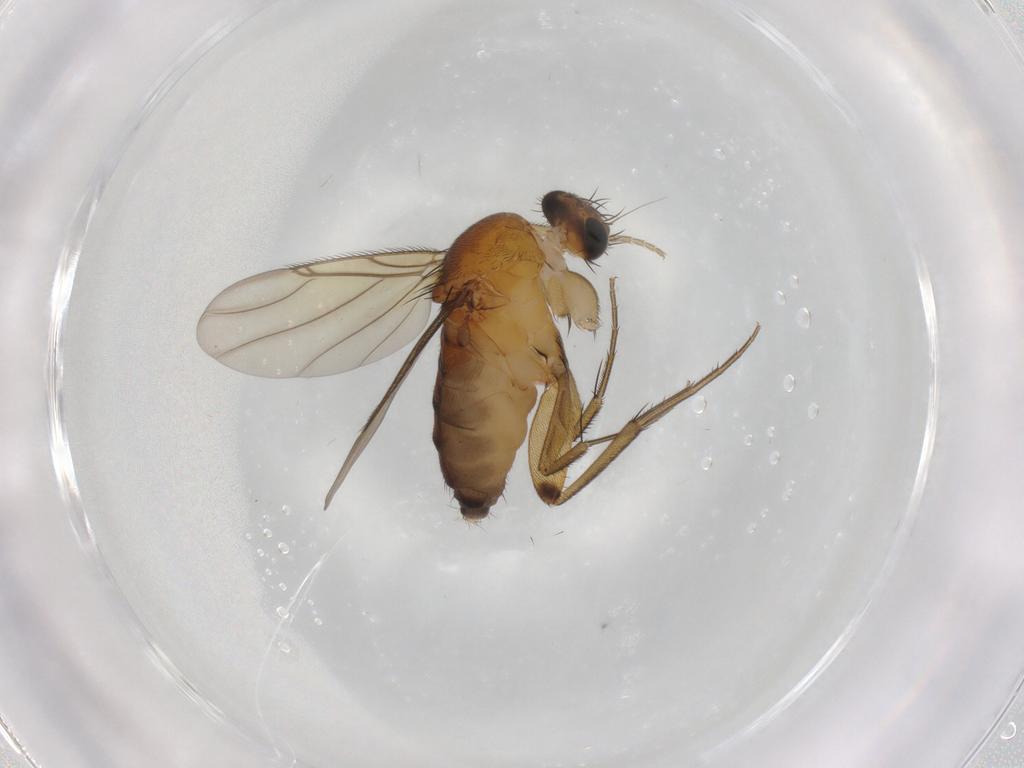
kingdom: Animalia
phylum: Arthropoda
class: Insecta
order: Diptera
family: Phoridae
